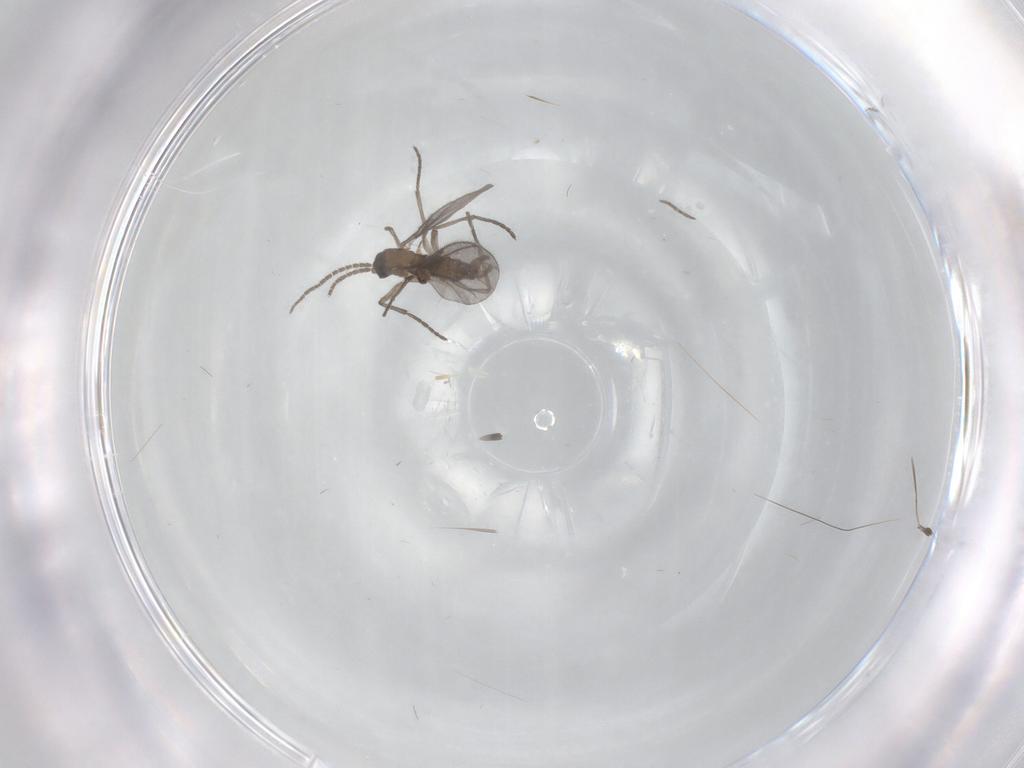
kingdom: Animalia
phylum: Arthropoda
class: Insecta
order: Diptera
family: Sciaridae
